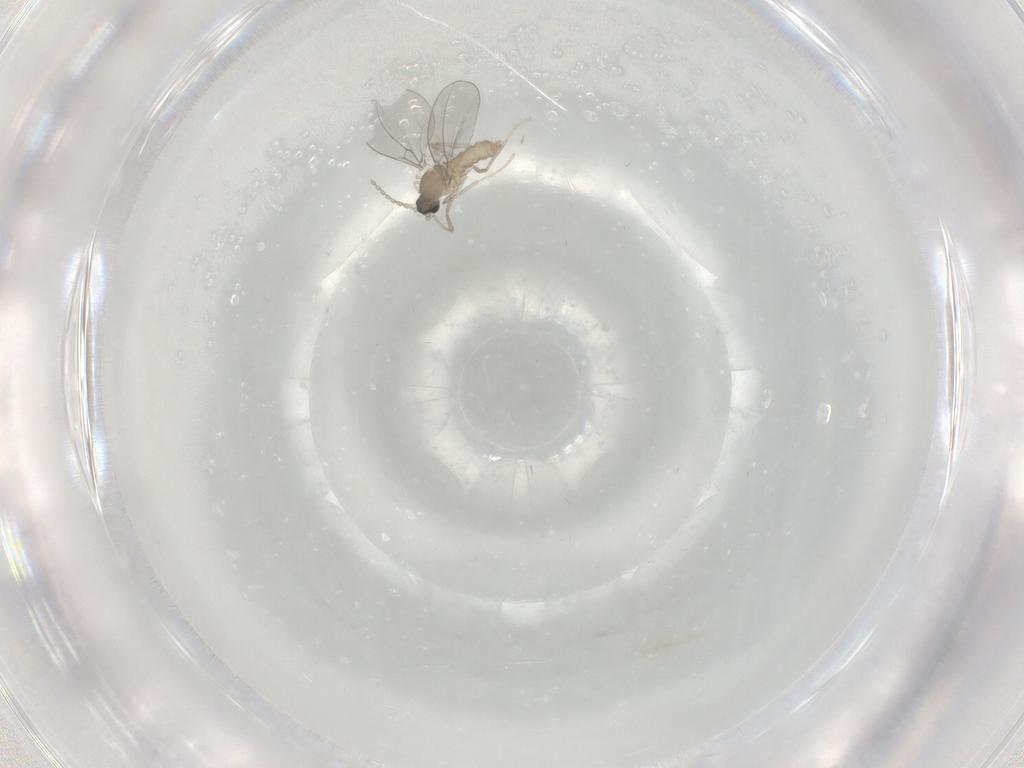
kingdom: Animalia
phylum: Arthropoda
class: Insecta
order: Diptera
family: Cecidomyiidae
